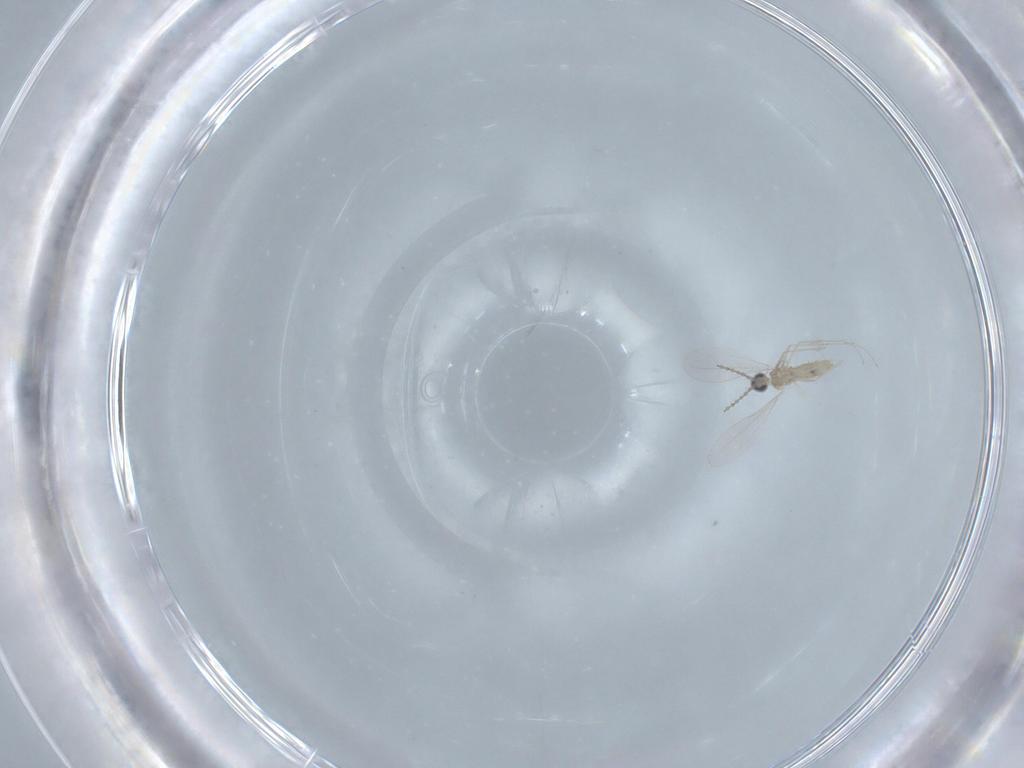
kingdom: Animalia
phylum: Arthropoda
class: Insecta
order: Diptera
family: Cecidomyiidae
